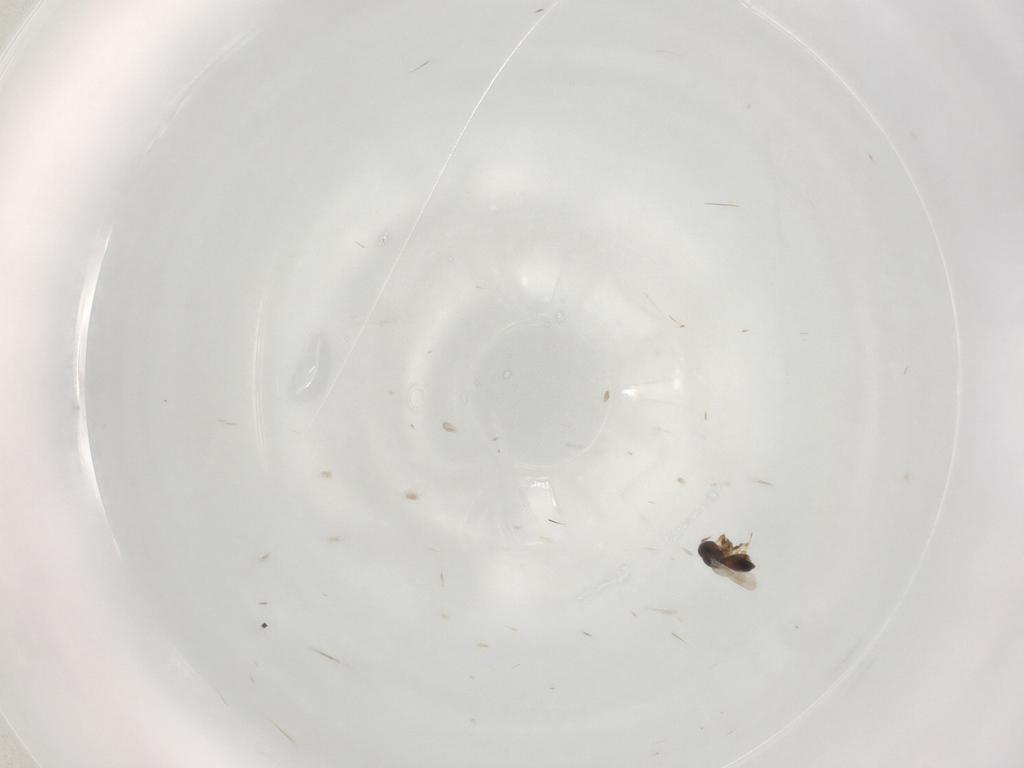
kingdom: Animalia
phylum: Arthropoda
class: Insecta
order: Hymenoptera
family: Platygastridae
